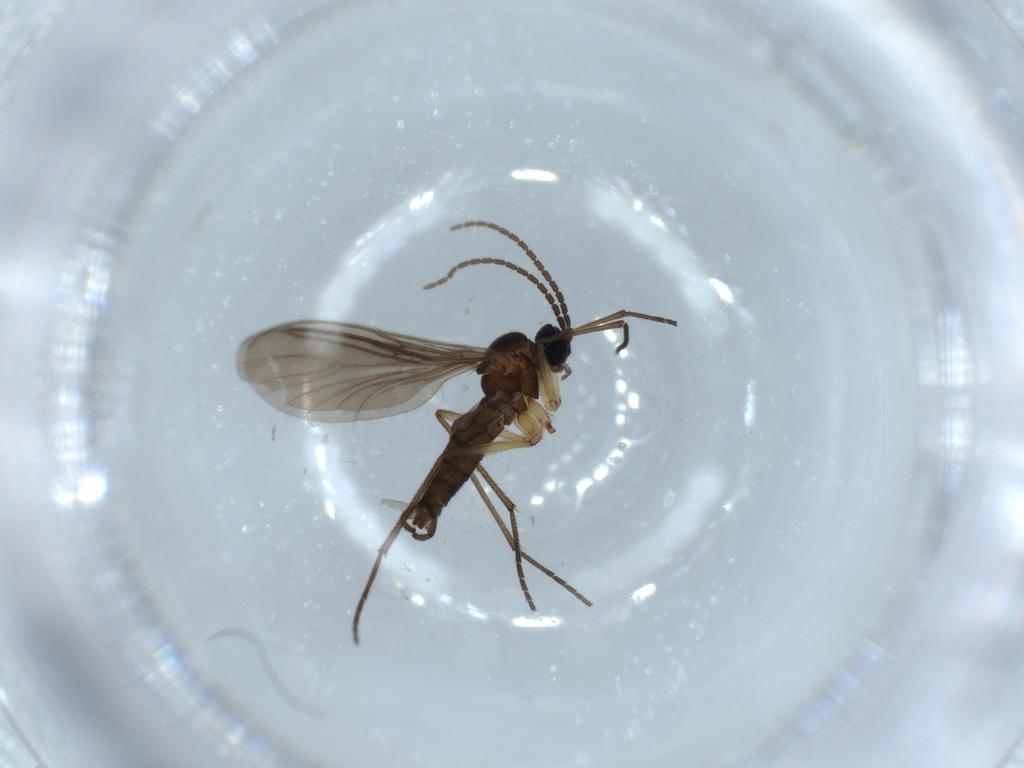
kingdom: Animalia
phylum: Arthropoda
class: Insecta
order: Diptera
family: Sciaridae
